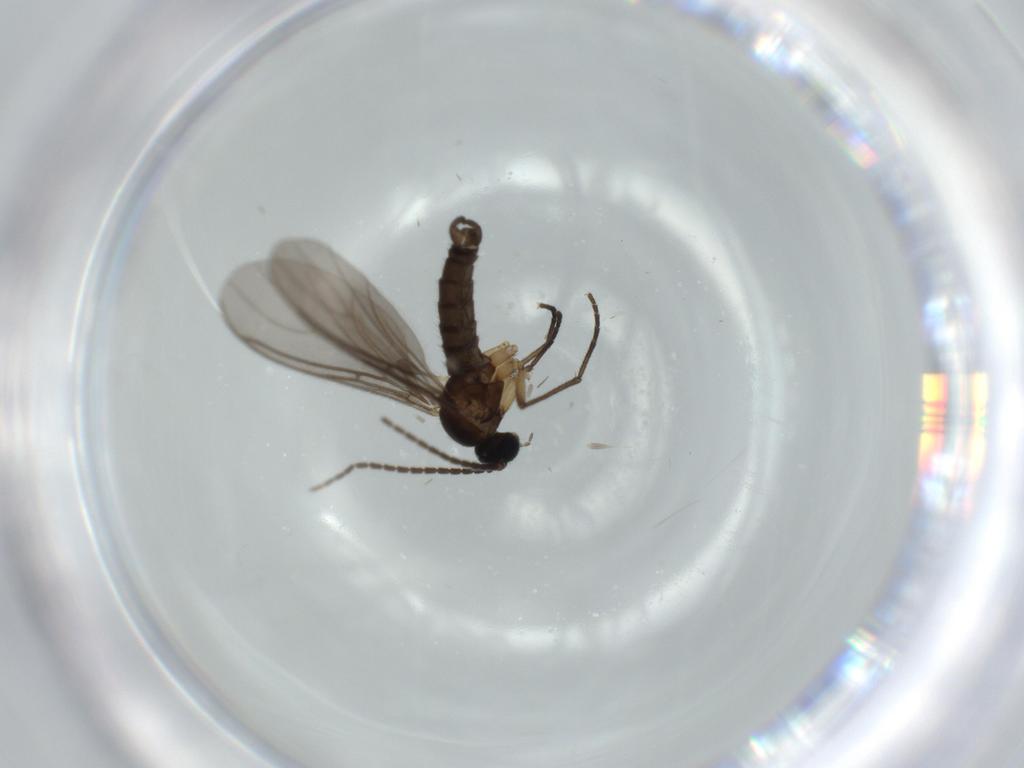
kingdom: Animalia
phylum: Arthropoda
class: Insecta
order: Diptera
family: Sciaridae
